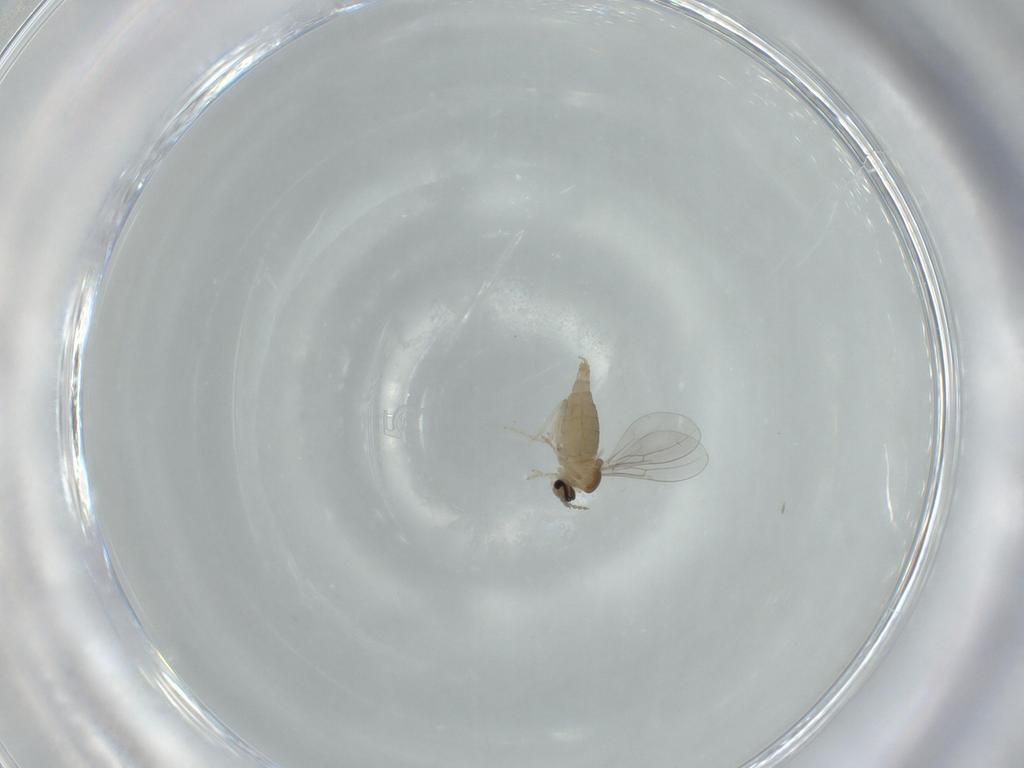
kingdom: Animalia
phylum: Arthropoda
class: Insecta
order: Diptera
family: Cecidomyiidae
